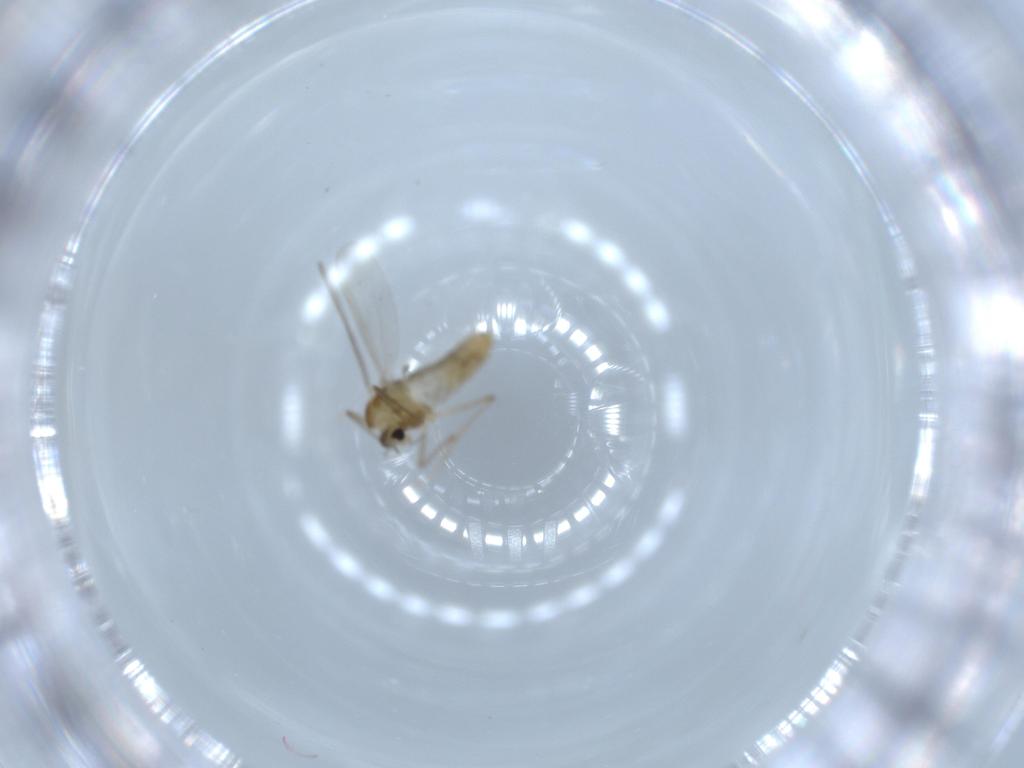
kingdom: Animalia
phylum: Arthropoda
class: Insecta
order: Diptera
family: Chironomidae
